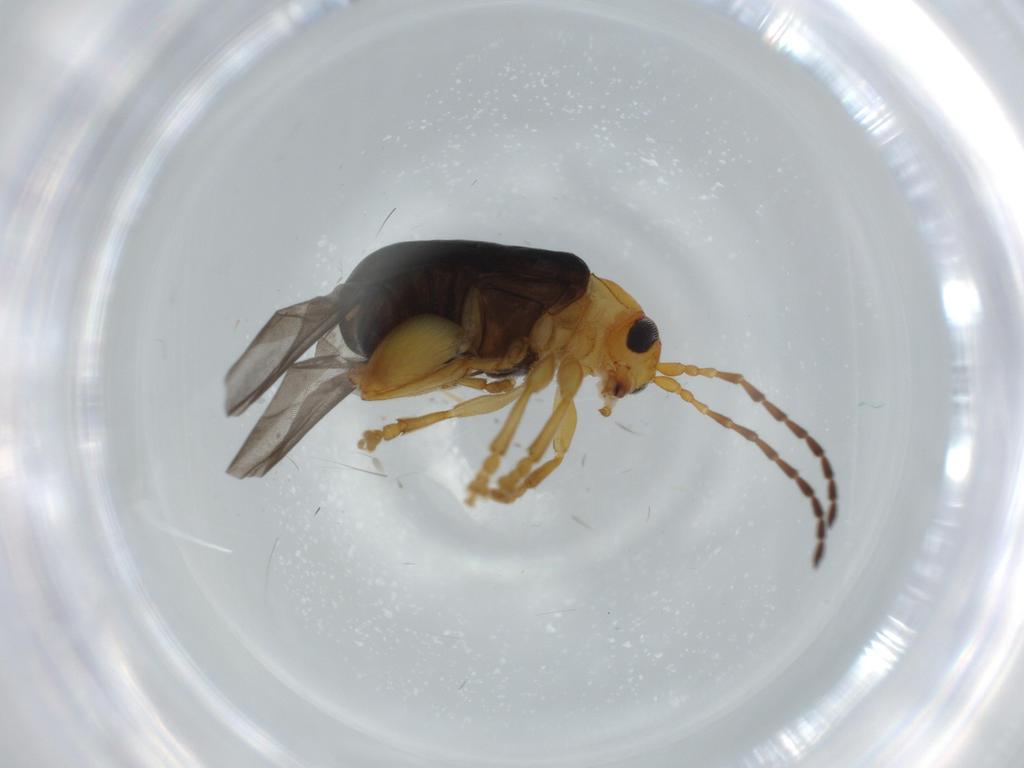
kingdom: Animalia
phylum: Arthropoda
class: Insecta
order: Coleoptera
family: Chrysomelidae
